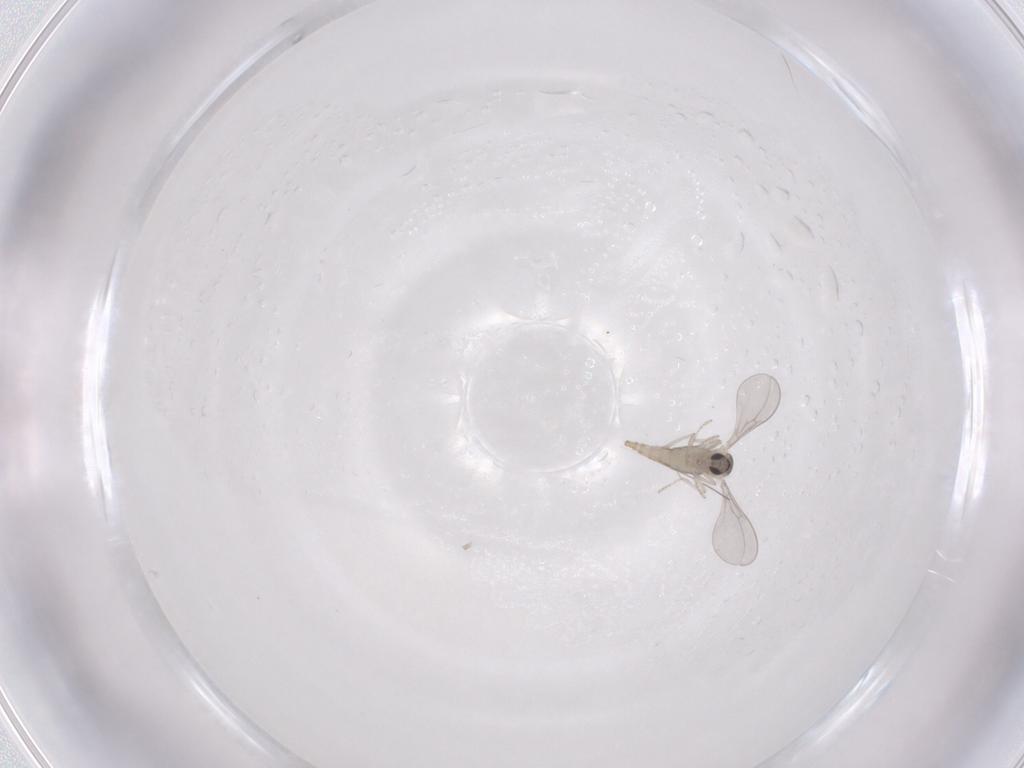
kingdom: Animalia
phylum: Arthropoda
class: Insecta
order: Diptera
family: Cecidomyiidae
